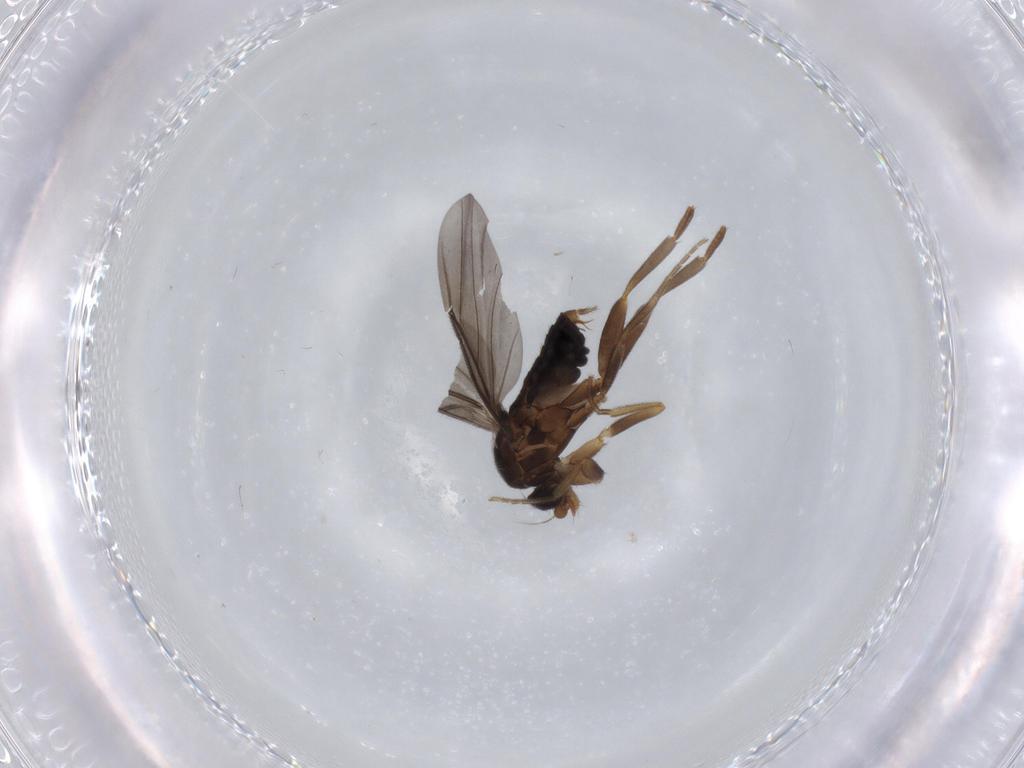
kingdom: Animalia
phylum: Arthropoda
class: Insecta
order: Diptera
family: Phoridae
